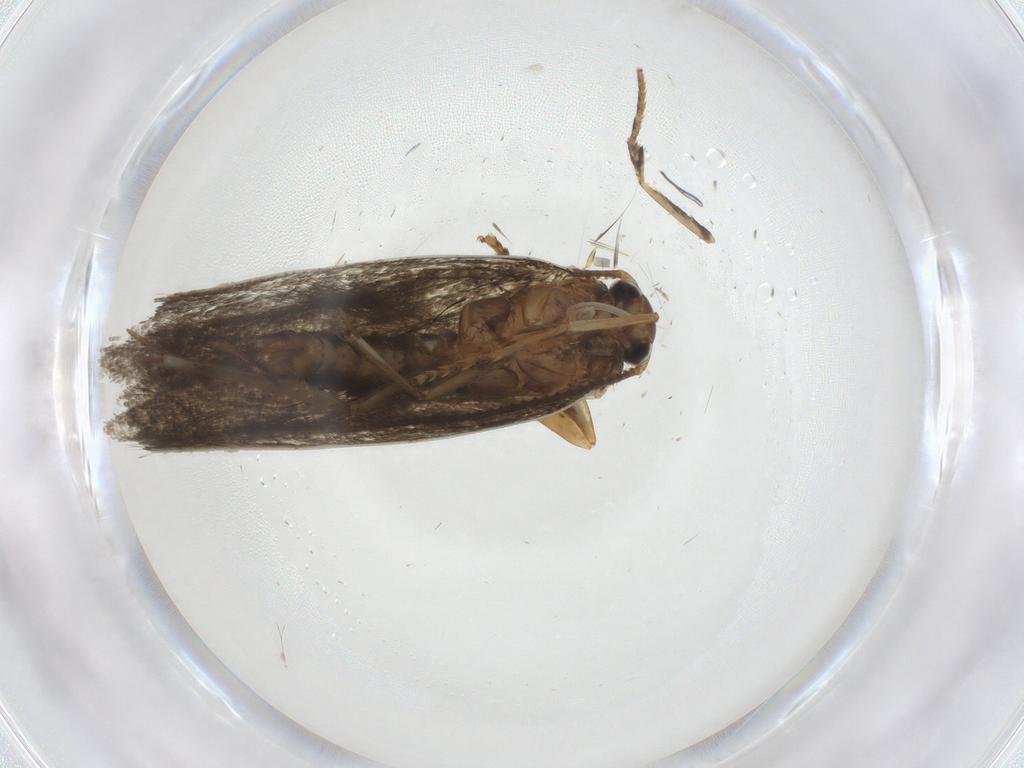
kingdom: Animalia
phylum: Arthropoda
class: Insecta
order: Lepidoptera
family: Erebidae
